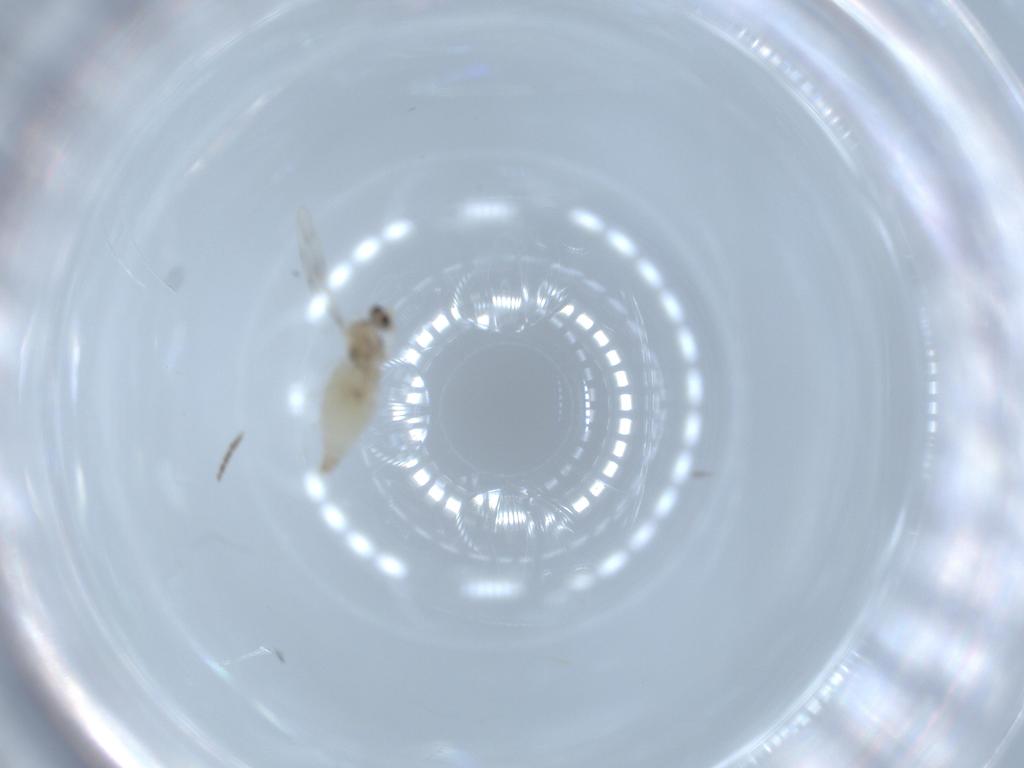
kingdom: Animalia
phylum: Arthropoda
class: Insecta
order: Diptera
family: Cecidomyiidae
